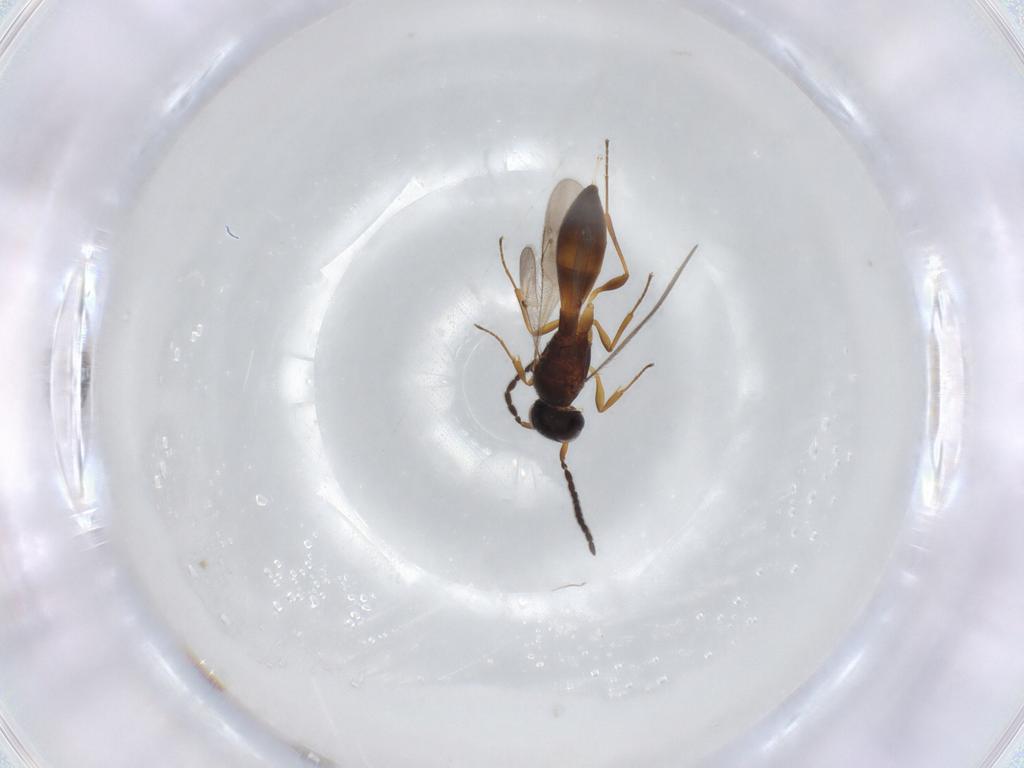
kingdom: Animalia
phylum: Arthropoda
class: Insecta
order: Hymenoptera
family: Scelionidae
